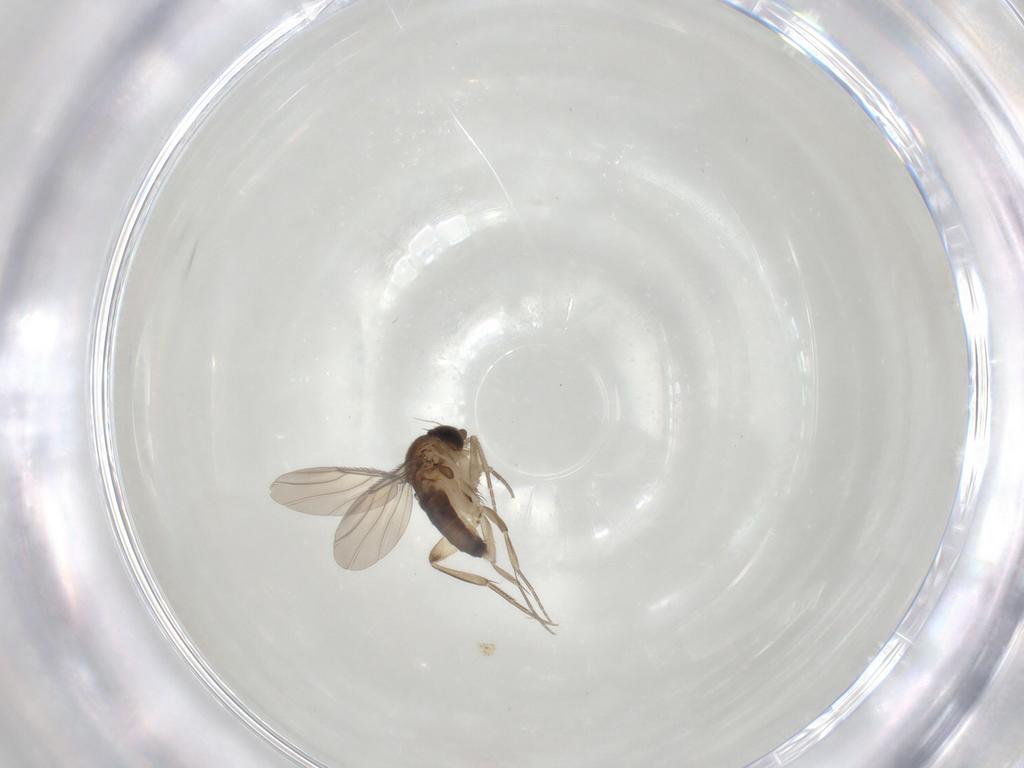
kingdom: Animalia
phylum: Arthropoda
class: Insecta
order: Diptera
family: Phoridae
